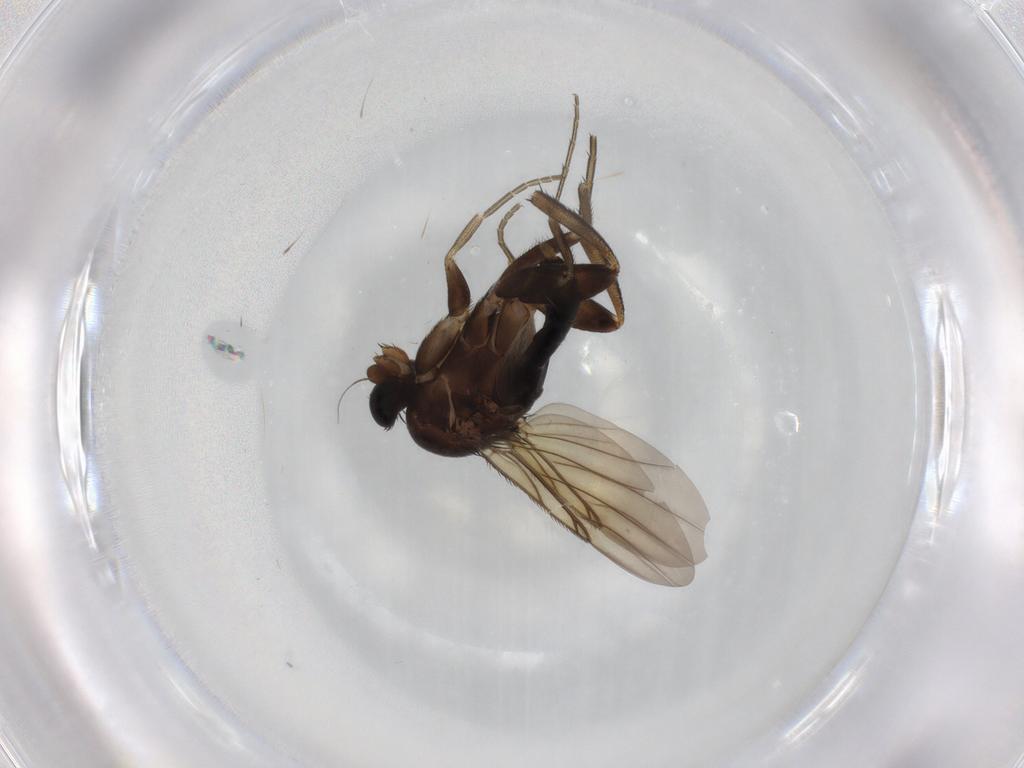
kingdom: Animalia
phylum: Arthropoda
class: Insecta
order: Diptera
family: Phoridae
